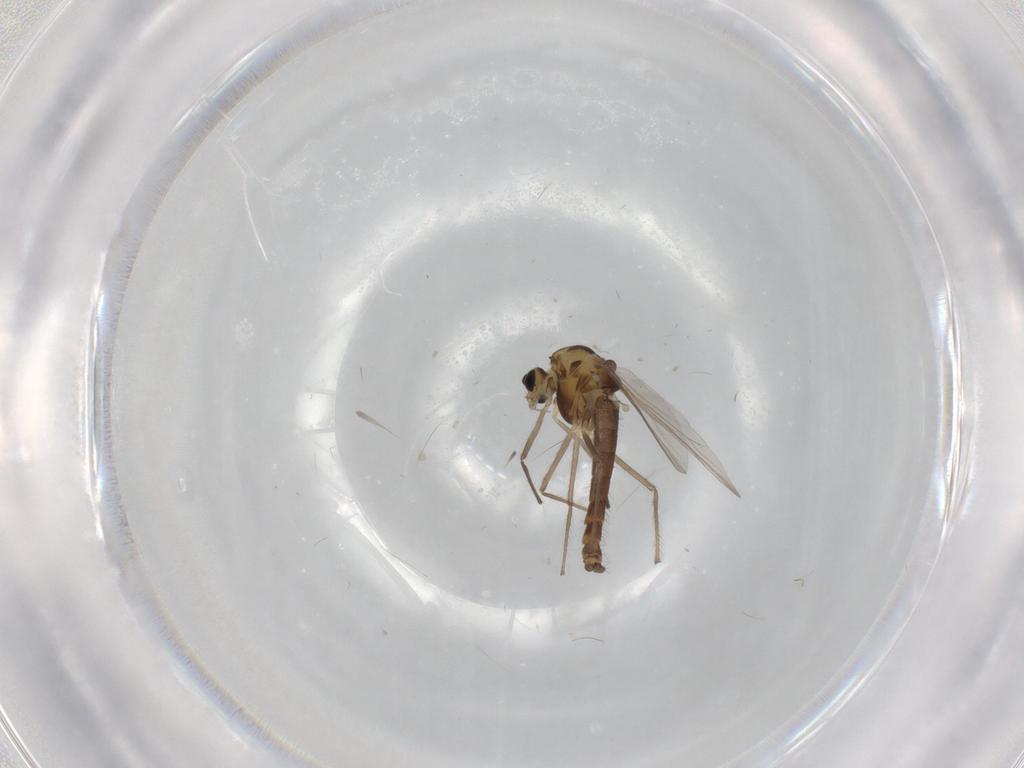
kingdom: Animalia
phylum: Arthropoda
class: Insecta
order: Diptera
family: Chironomidae
